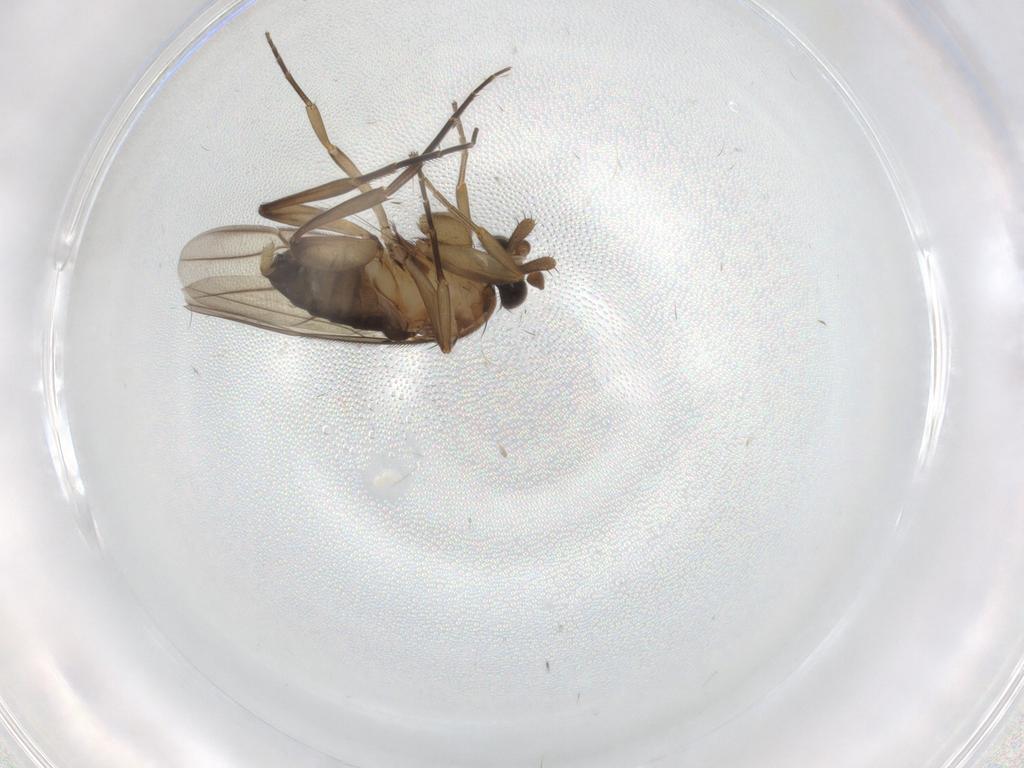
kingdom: Animalia
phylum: Arthropoda
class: Insecta
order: Diptera
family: Phoridae
